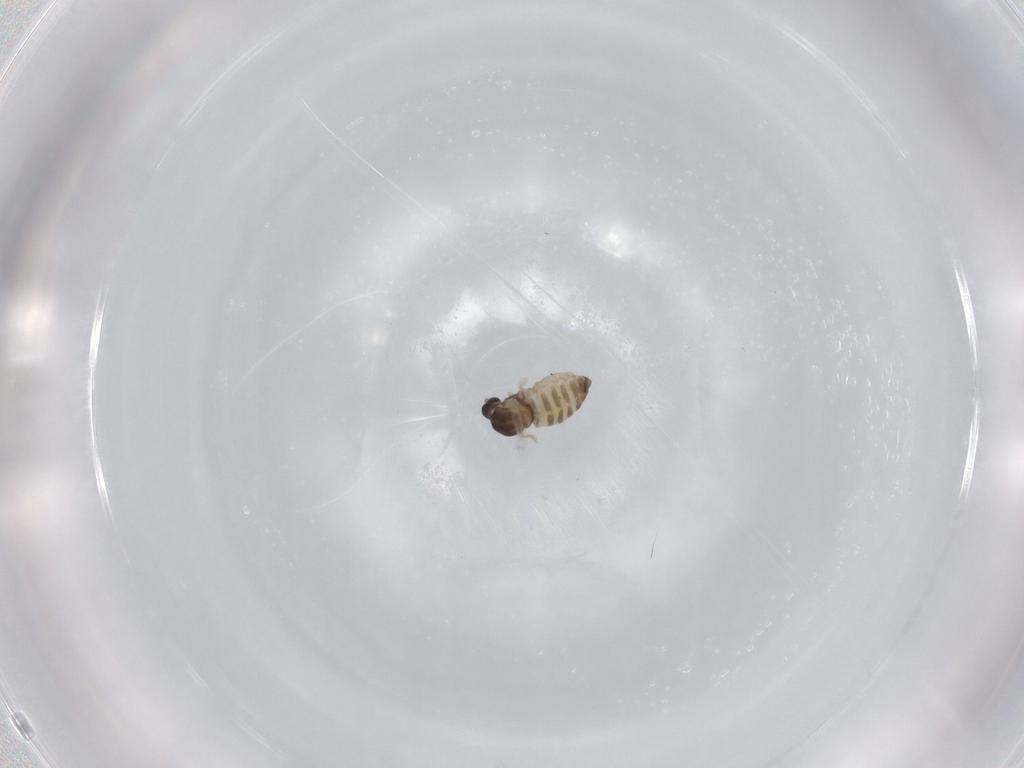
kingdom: Animalia
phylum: Arthropoda
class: Insecta
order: Diptera
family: Cecidomyiidae
